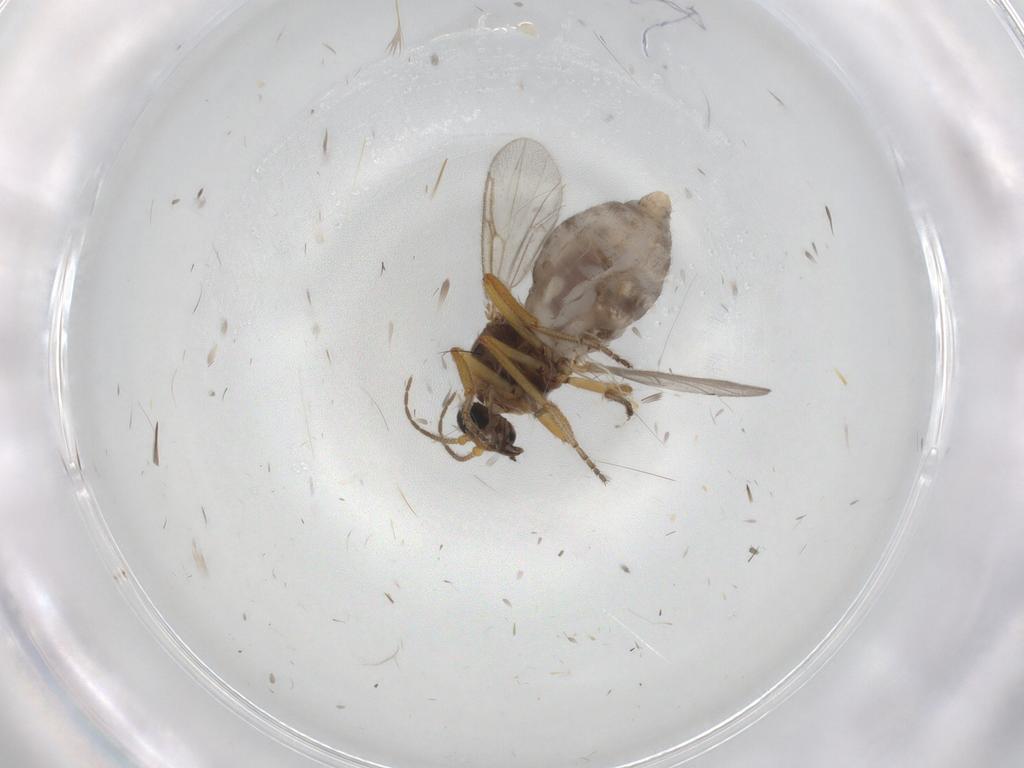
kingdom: Animalia
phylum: Arthropoda
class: Insecta
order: Diptera
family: Ceratopogonidae
